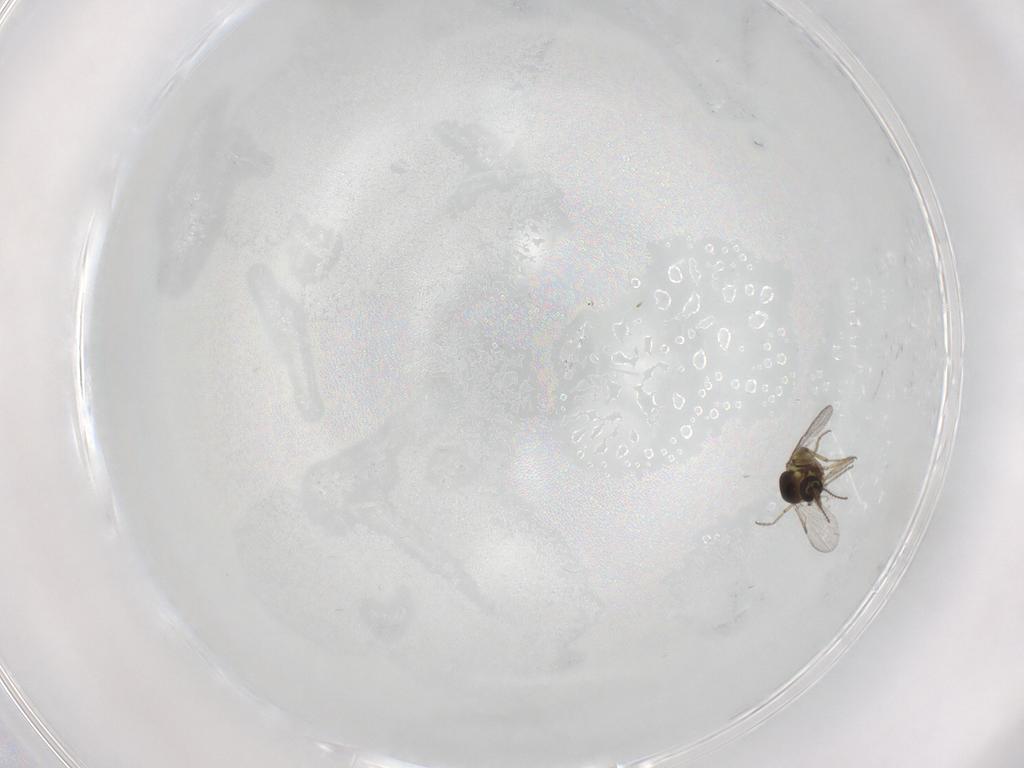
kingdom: Animalia
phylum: Arthropoda
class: Insecta
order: Diptera
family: Ceratopogonidae
